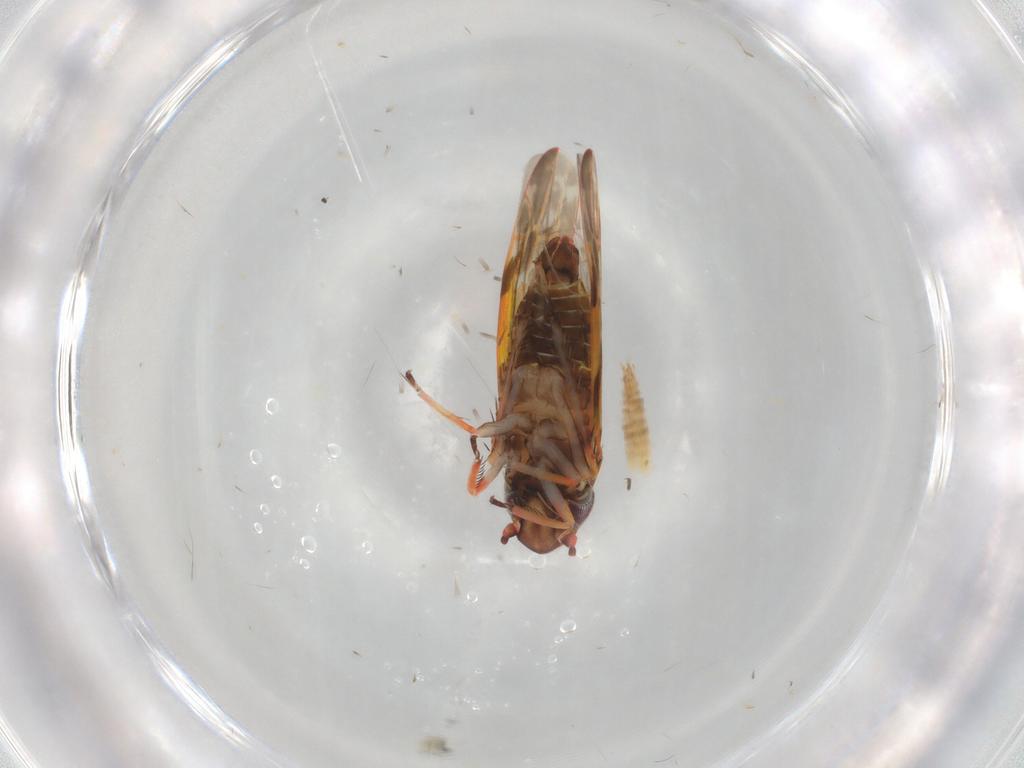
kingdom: Animalia
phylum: Arthropoda
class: Insecta
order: Hemiptera
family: Cicadellidae
